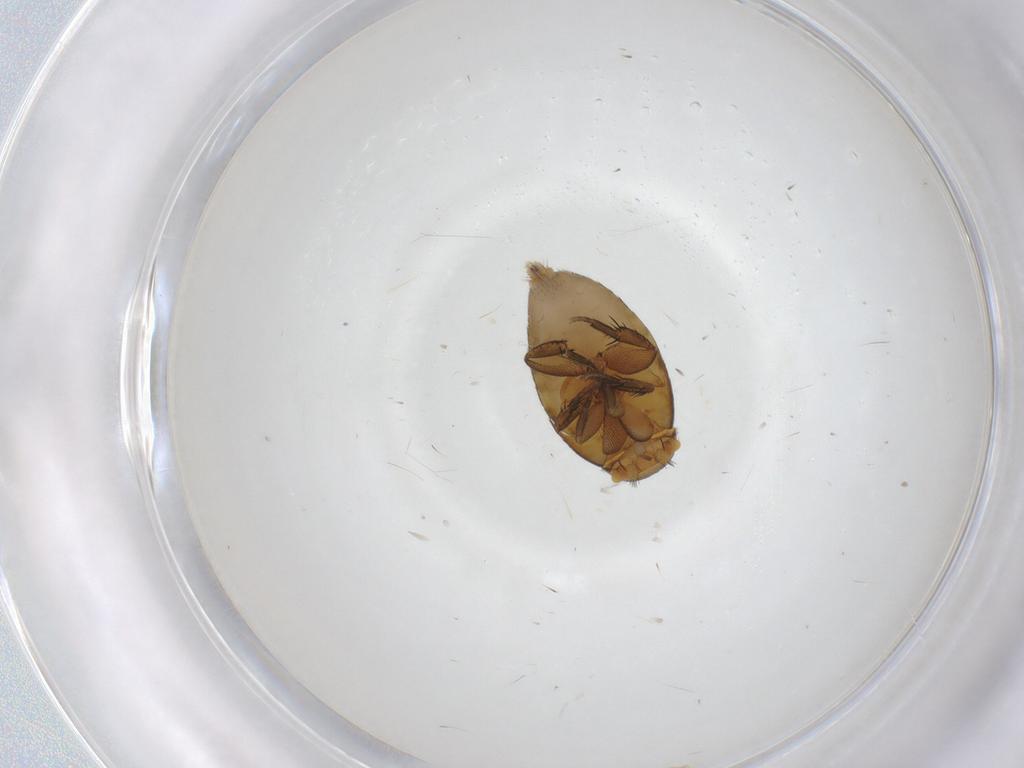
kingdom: Animalia
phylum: Arthropoda
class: Insecta
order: Diptera
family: Phoridae
